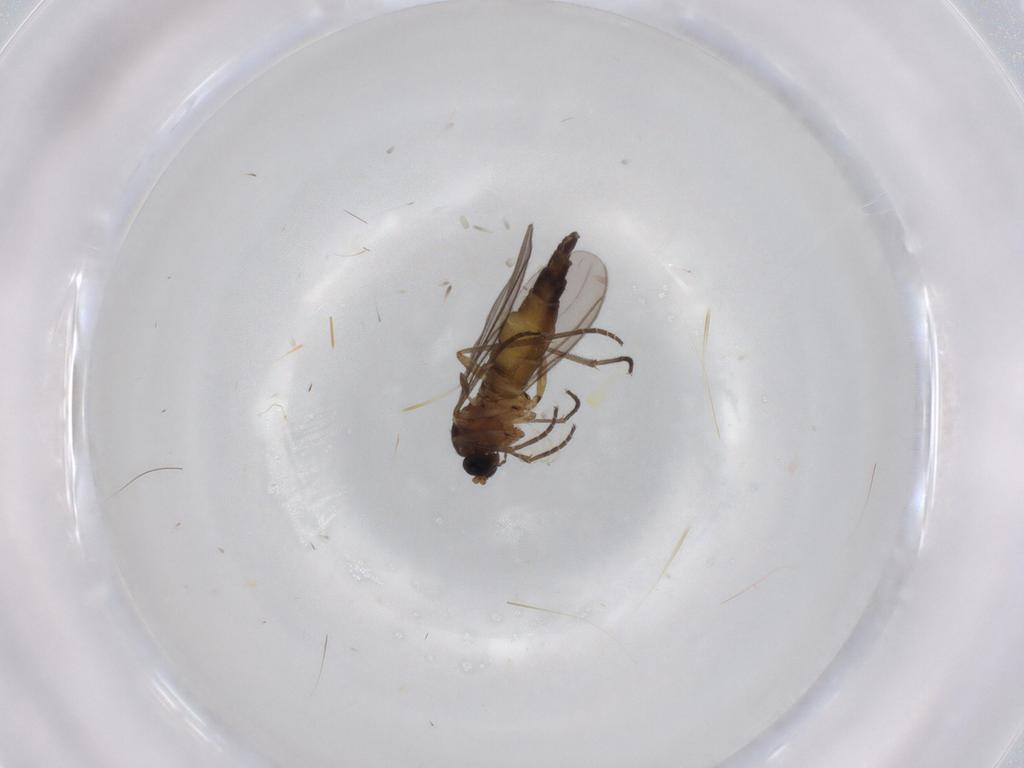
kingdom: Animalia
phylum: Arthropoda
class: Insecta
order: Diptera
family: Sciaridae
